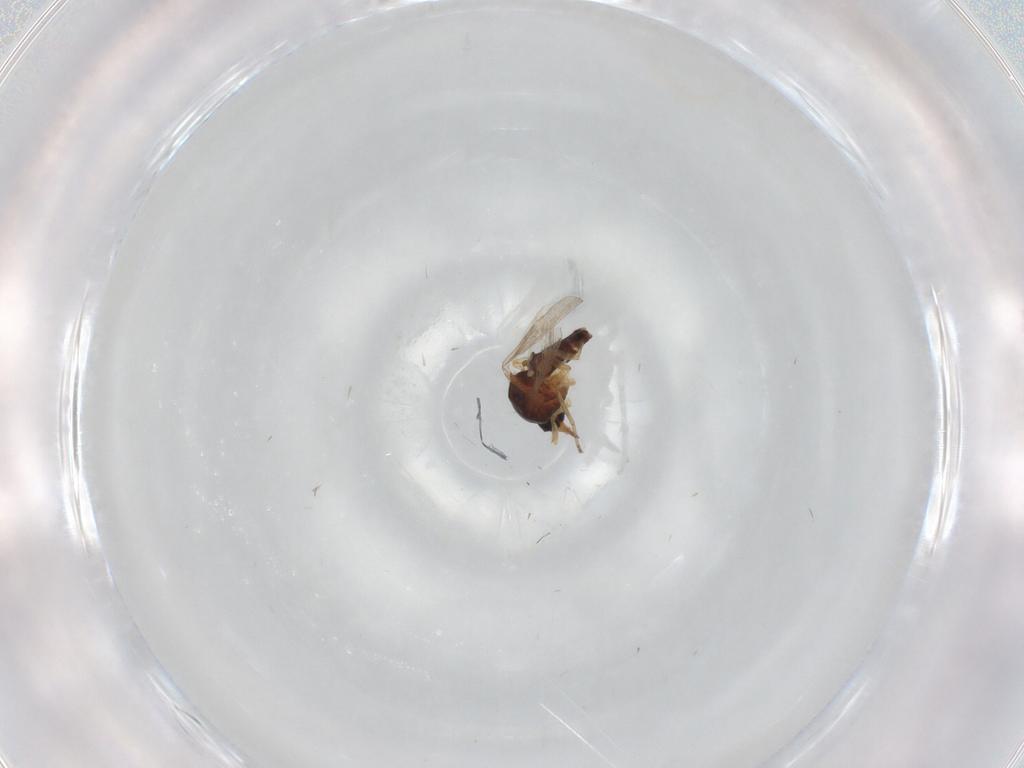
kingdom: Animalia
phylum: Arthropoda
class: Insecta
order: Diptera
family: Ceratopogonidae
